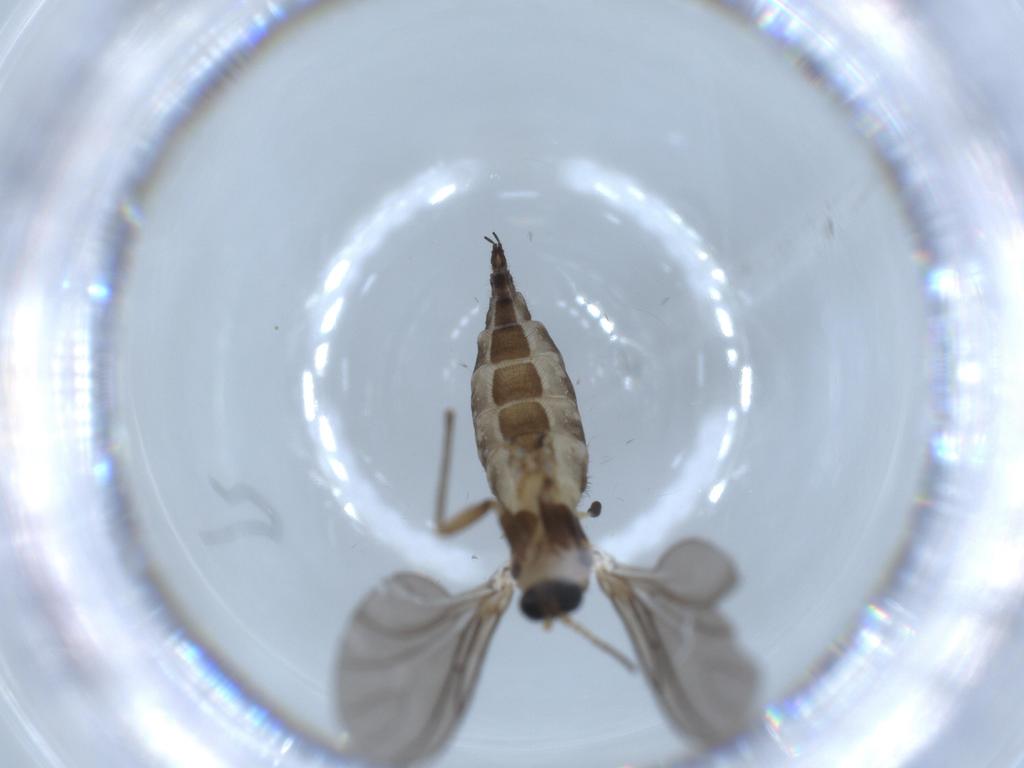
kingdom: Animalia
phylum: Arthropoda
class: Insecta
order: Diptera
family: Sciaridae
